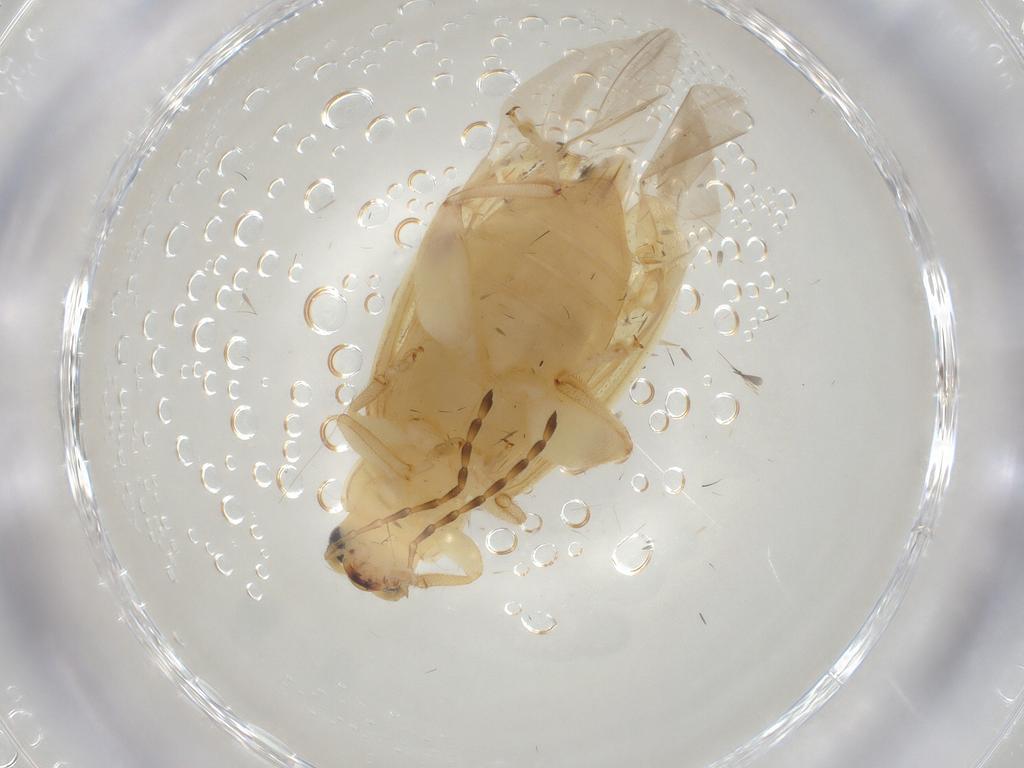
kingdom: Animalia
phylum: Arthropoda
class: Insecta
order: Coleoptera
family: Chrysomelidae
